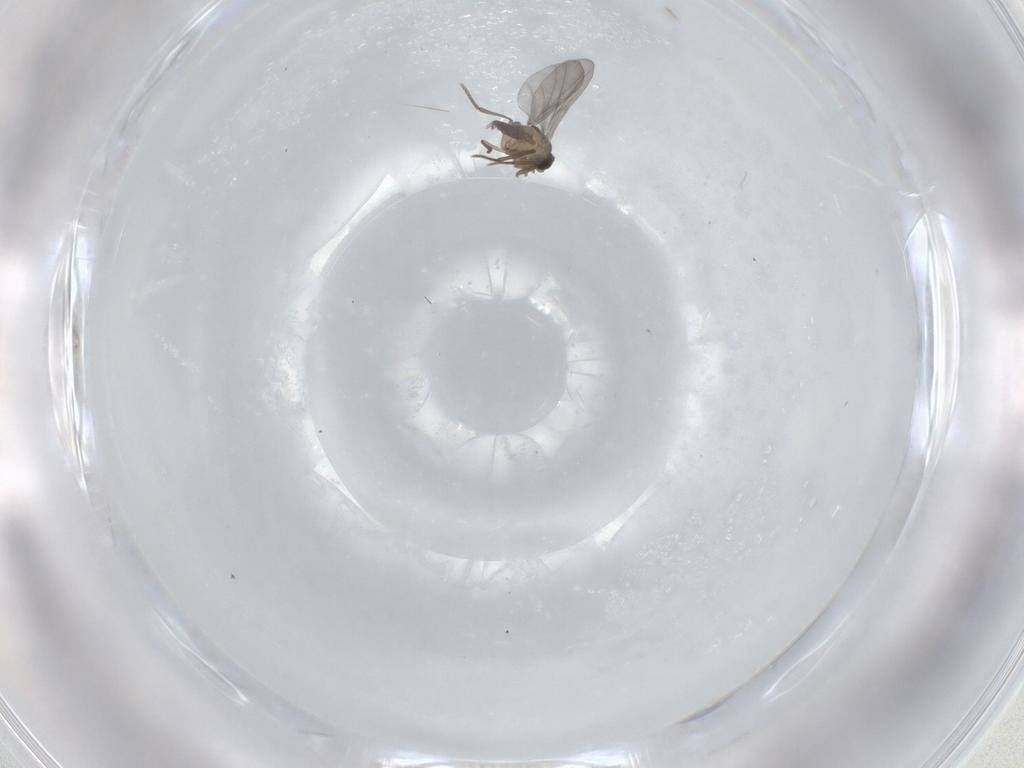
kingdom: Animalia
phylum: Arthropoda
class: Insecta
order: Diptera
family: Phoridae
